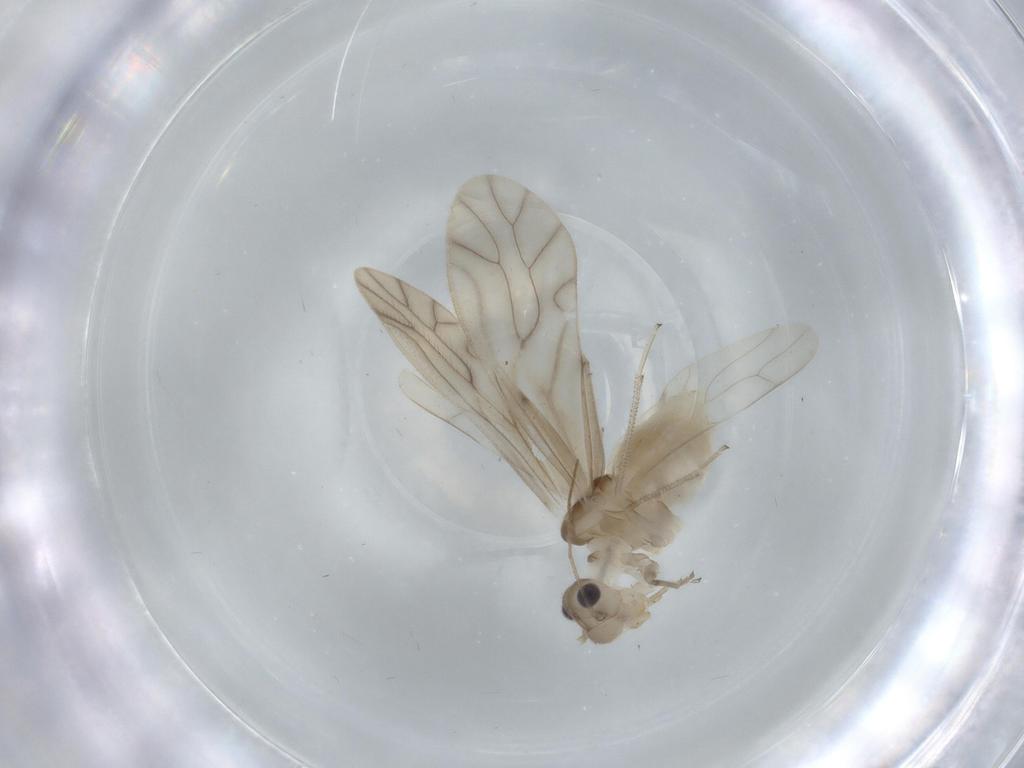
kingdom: Animalia
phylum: Arthropoda
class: Insecta
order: Psocodea
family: Caeciliusidae
